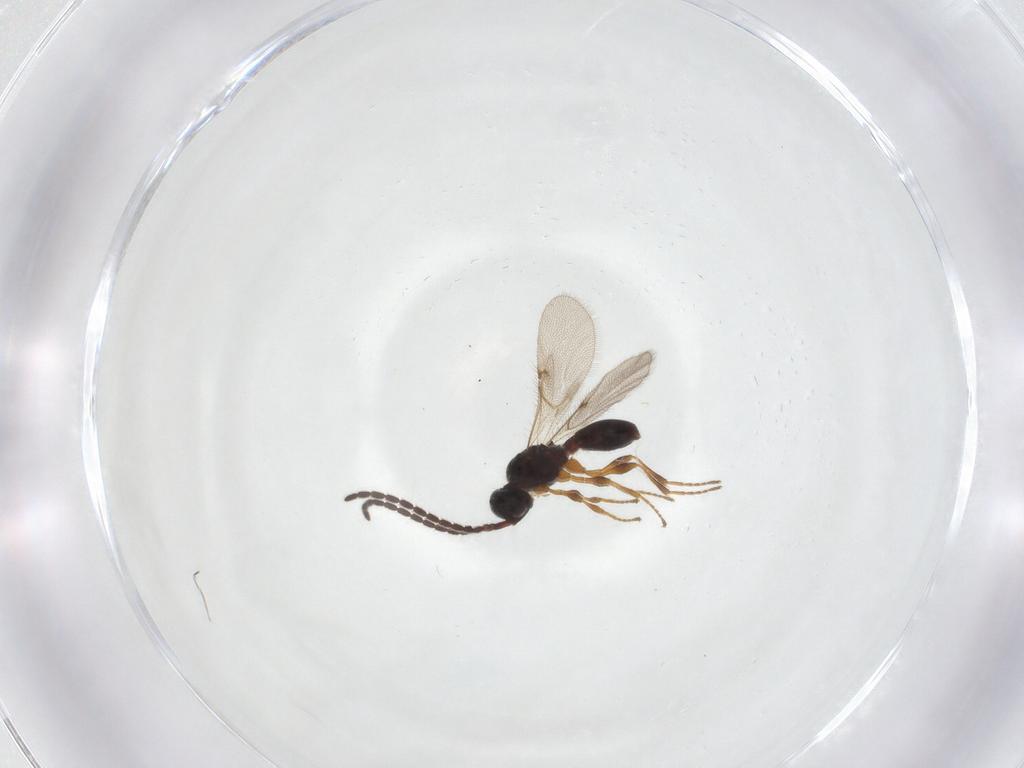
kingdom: Animalia
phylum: Arthropoda
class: Insecta
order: Hymenoptera
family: Diapriidae
